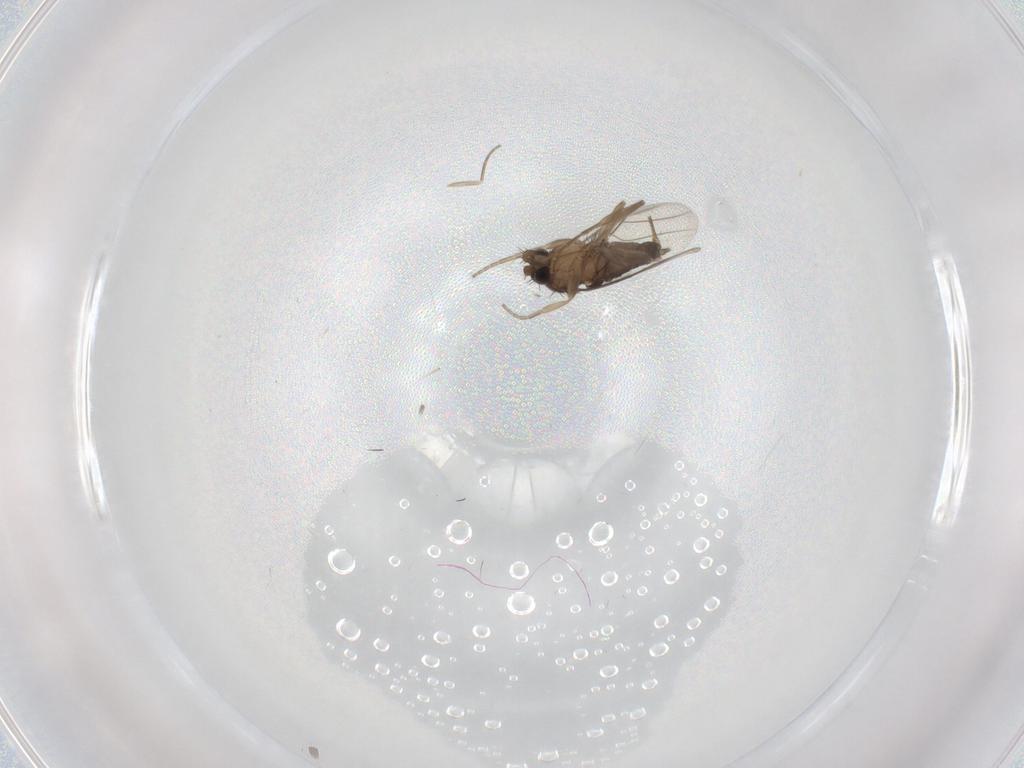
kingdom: Animalia
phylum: Arthropoda
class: Insecta
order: Diptera
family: Phoridae
